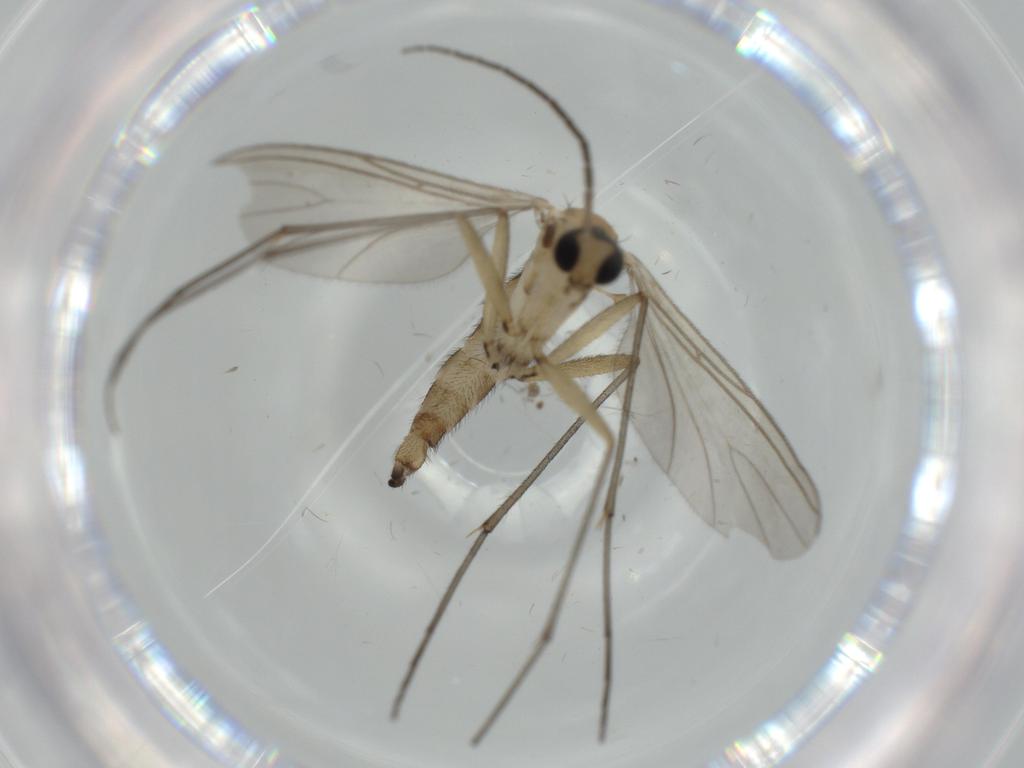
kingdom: Animalia
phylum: Arthropoda
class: Insecta
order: Diptera
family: Sciaridae
